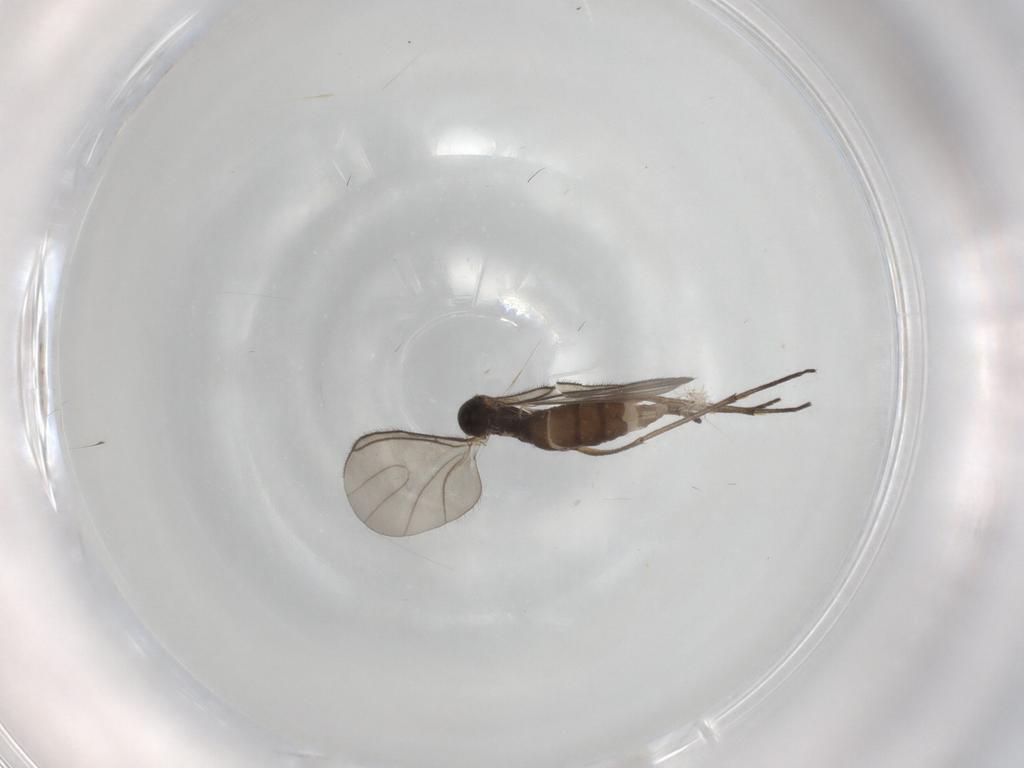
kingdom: Animalia
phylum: Arthropoda
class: Insecta
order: Diptera
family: Sciaridae
